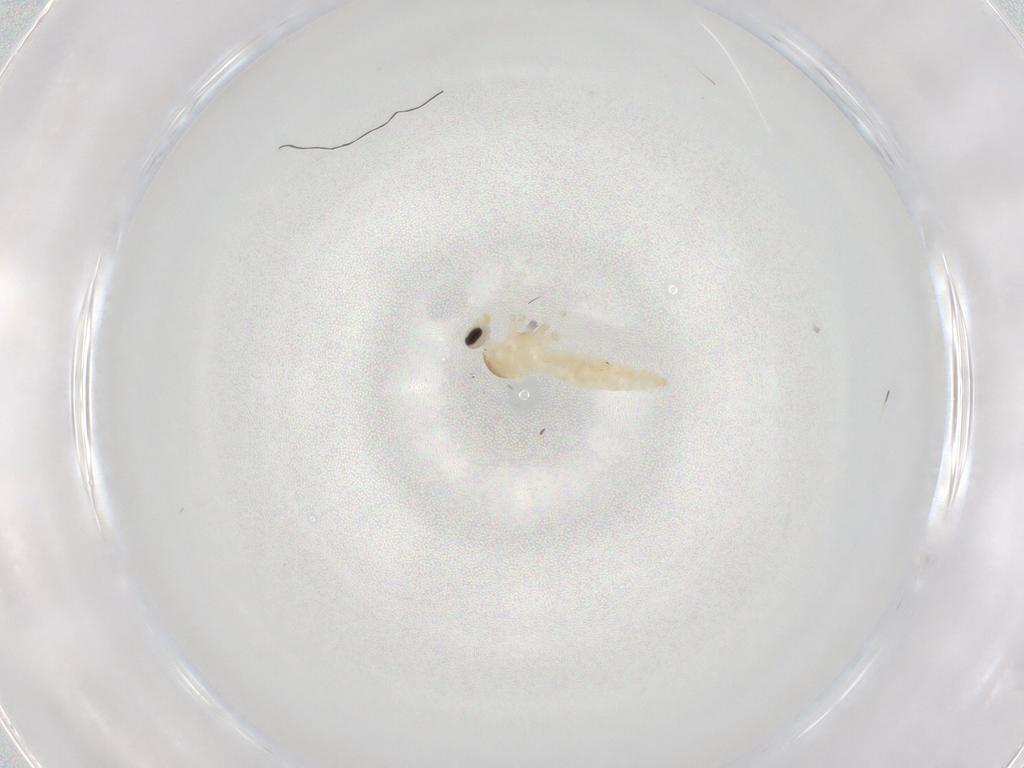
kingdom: Animalia
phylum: Arthropoda
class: Insecta
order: Diptera
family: Cecidomyiidae
